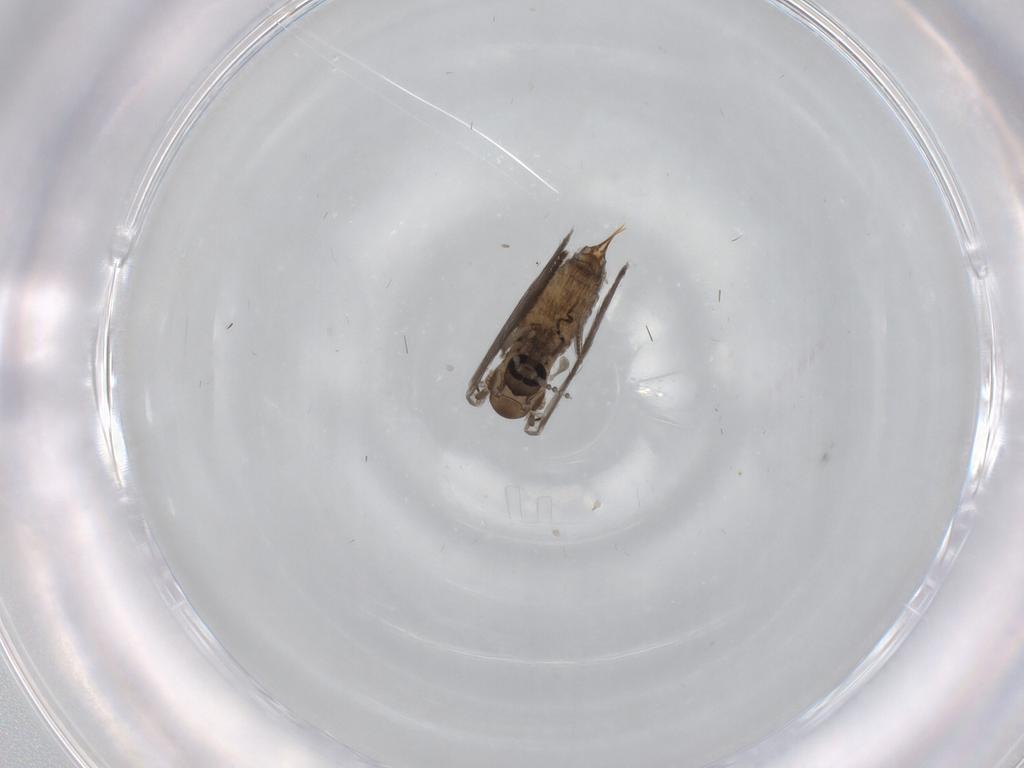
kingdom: Animalia
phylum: Arthropoda
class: Insecta
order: Diptera
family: Psychodidae
